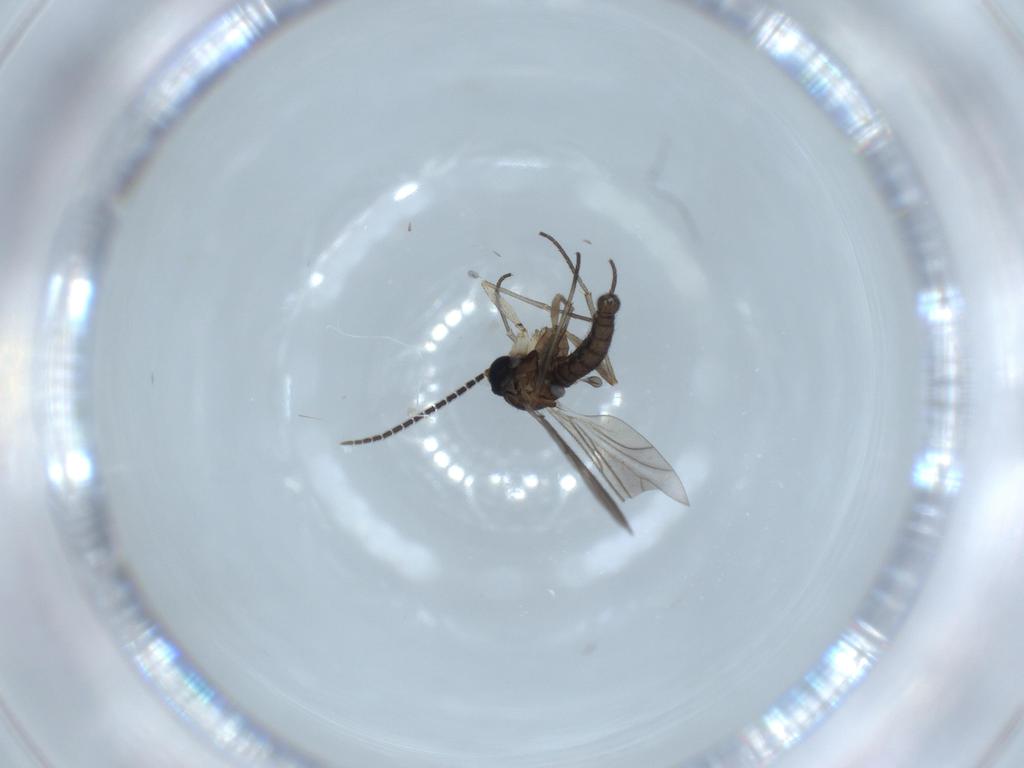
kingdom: Animalia
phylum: Arthropoda
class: Insecta
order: Diptera
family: Sciaridae
